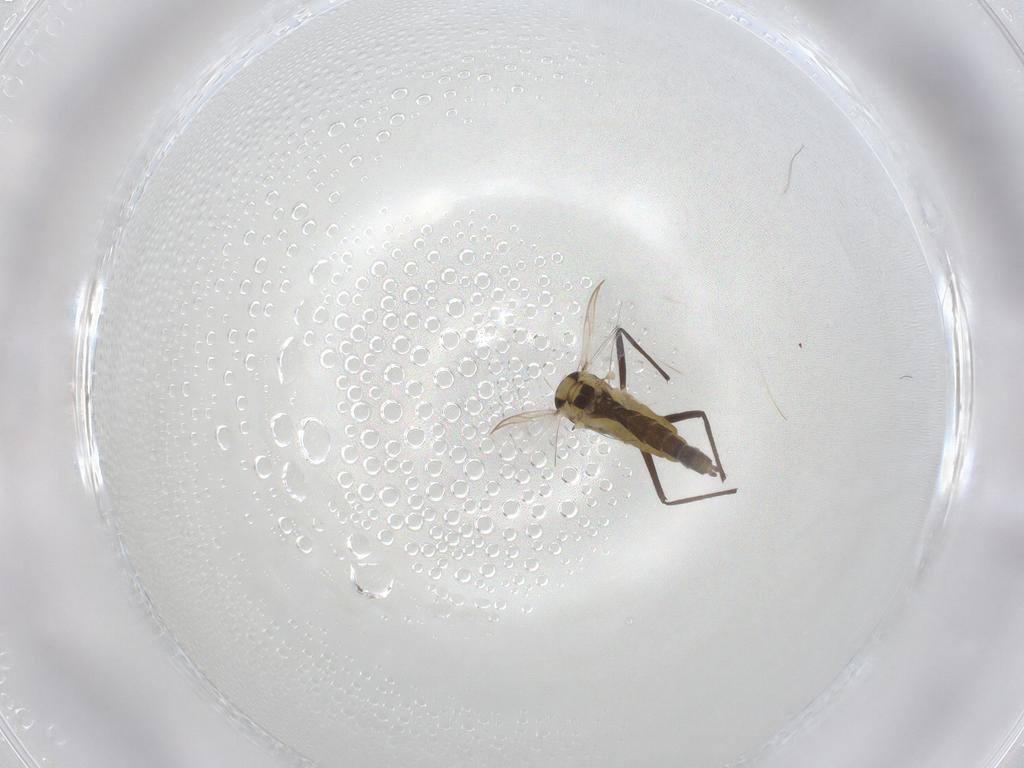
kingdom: Animalia
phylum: Arthropoda
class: Insecta
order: Diptera
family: Chironomidae
